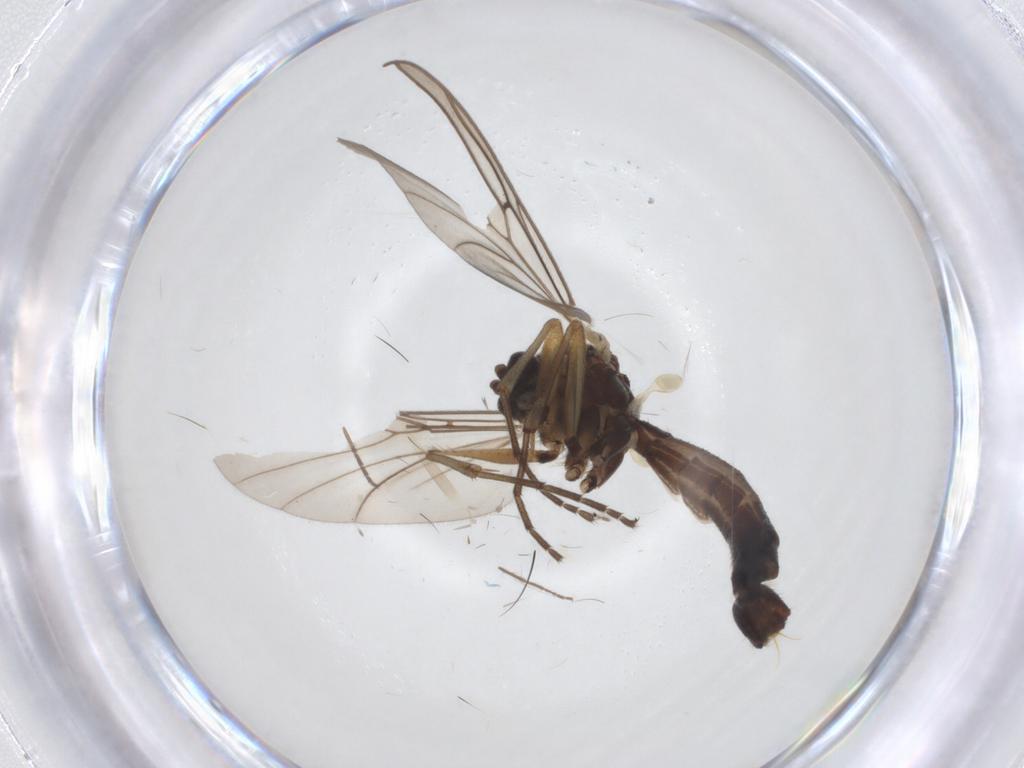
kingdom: Animalia
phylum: Arthropoda
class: Insecta
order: Diptera
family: Mycetophilidae
